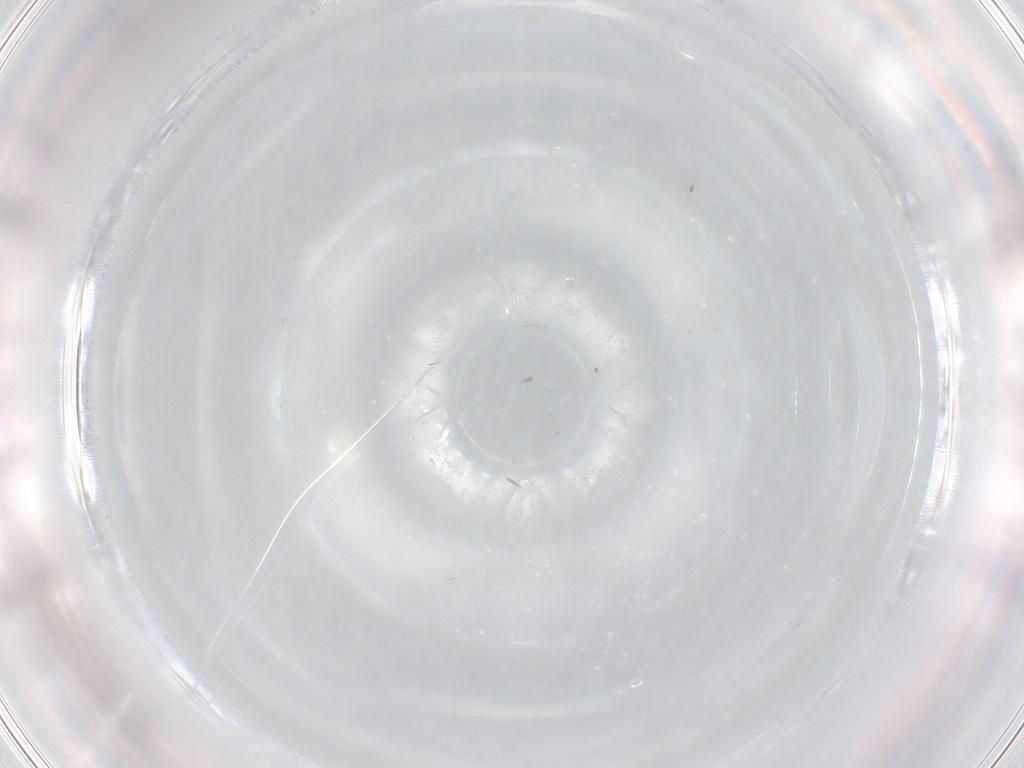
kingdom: Animalia
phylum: Arthropoda
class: Insecta
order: Diptera
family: Limoniidae
